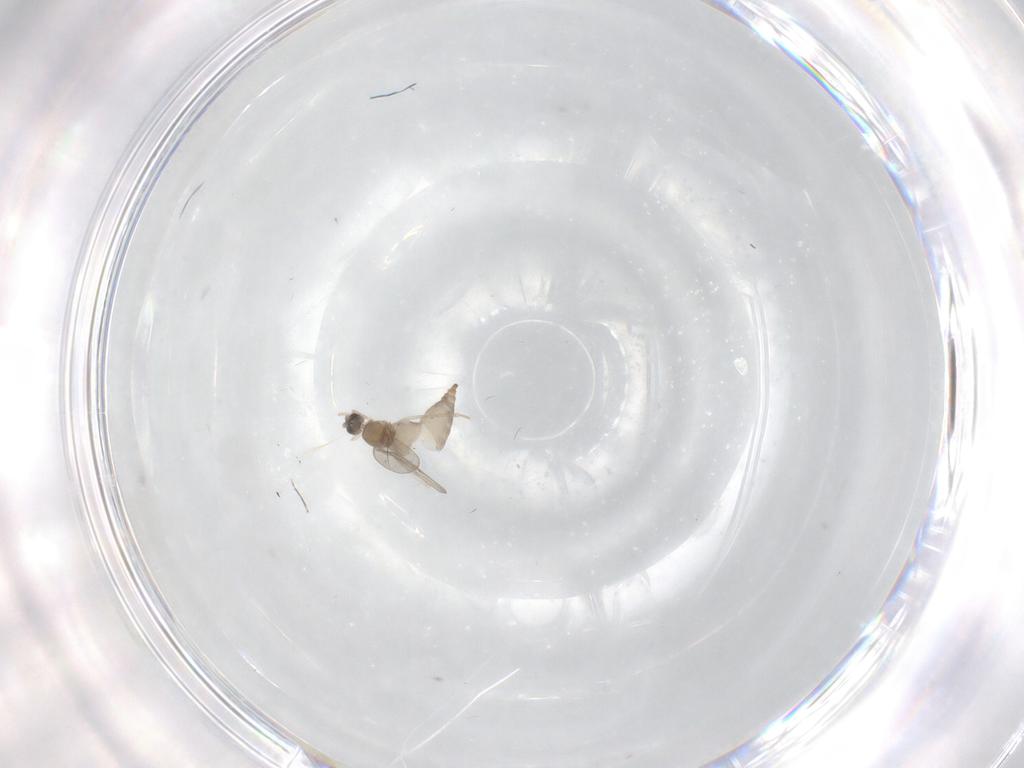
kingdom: Animalia
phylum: Arthropoda
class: Insecta
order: Diptera
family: Cecidomyiidae
